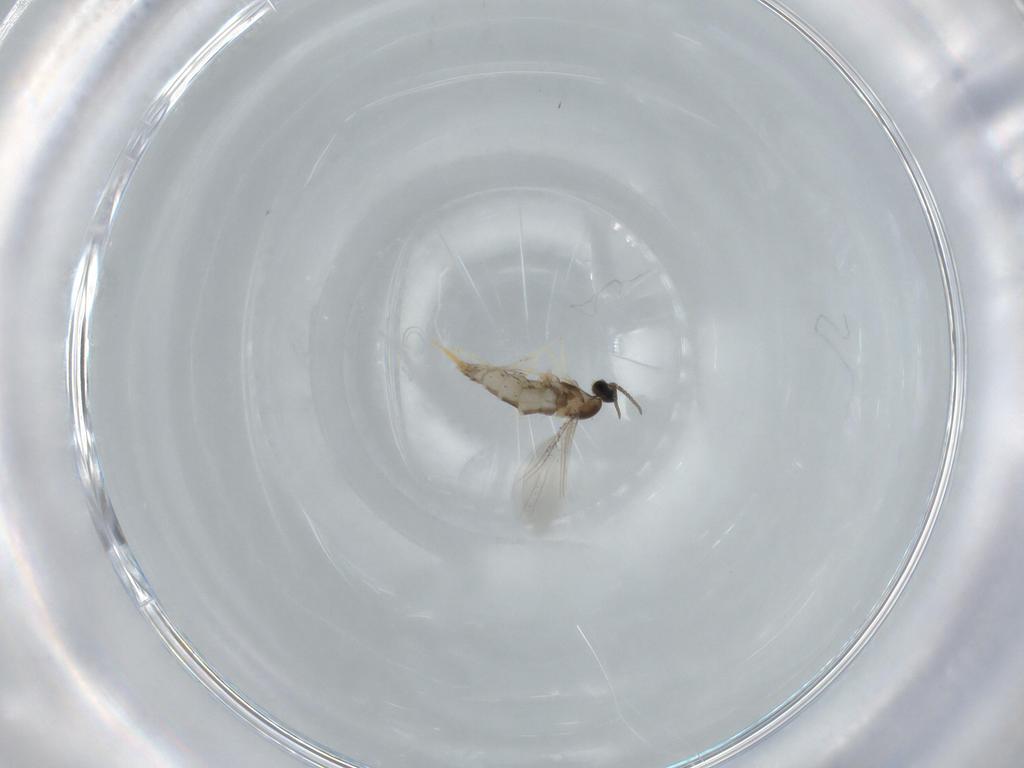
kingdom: Animalia
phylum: Arthropoda
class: Insecta
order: Diptera
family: Cecidomyiidae
